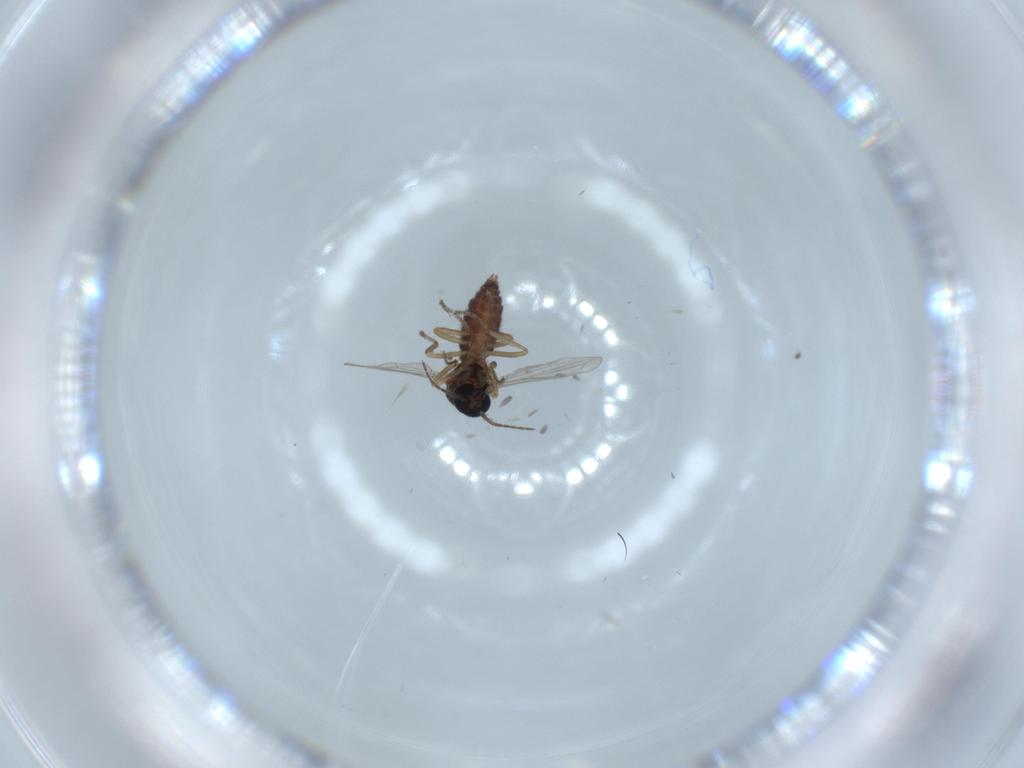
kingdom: Animalia
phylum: Arthropoda
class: Insecta
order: Diptera
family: Ceratopogonidae
